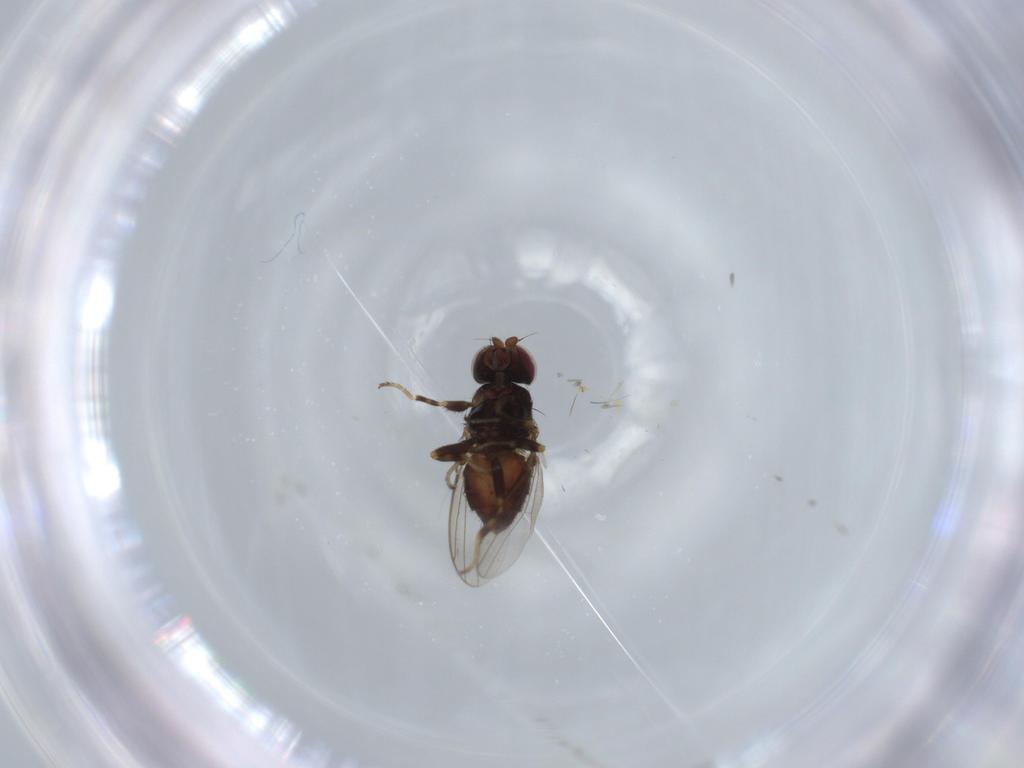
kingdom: Animalia
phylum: Arthropoda
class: Insecta
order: Diptera
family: Chloropidae
